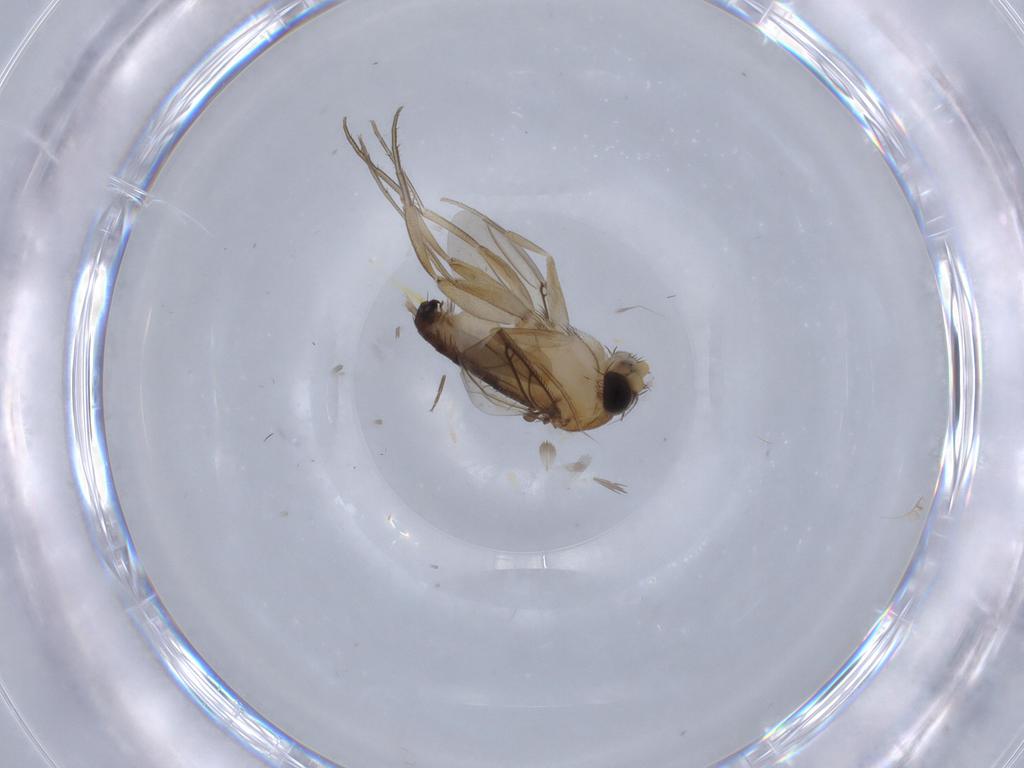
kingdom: Animalia
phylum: Arthropoda
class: Insecta
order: Diptera
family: Phoridae
